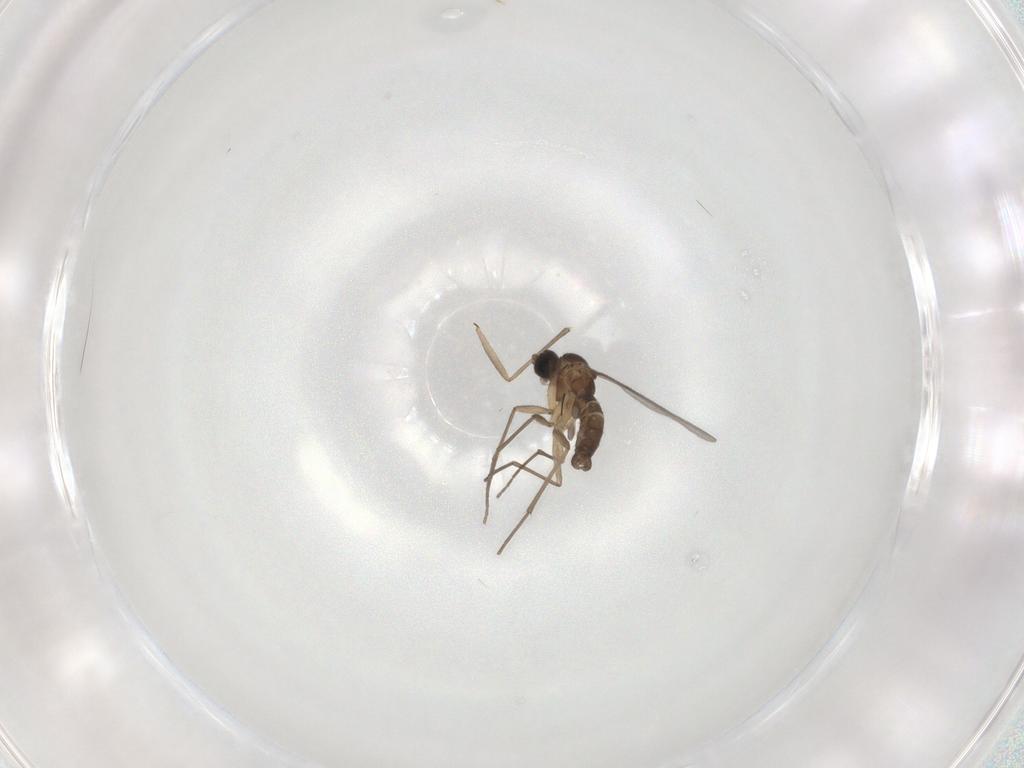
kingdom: Animalia
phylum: Arthropoda
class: Insecta
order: Diptera
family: Sciaridae
